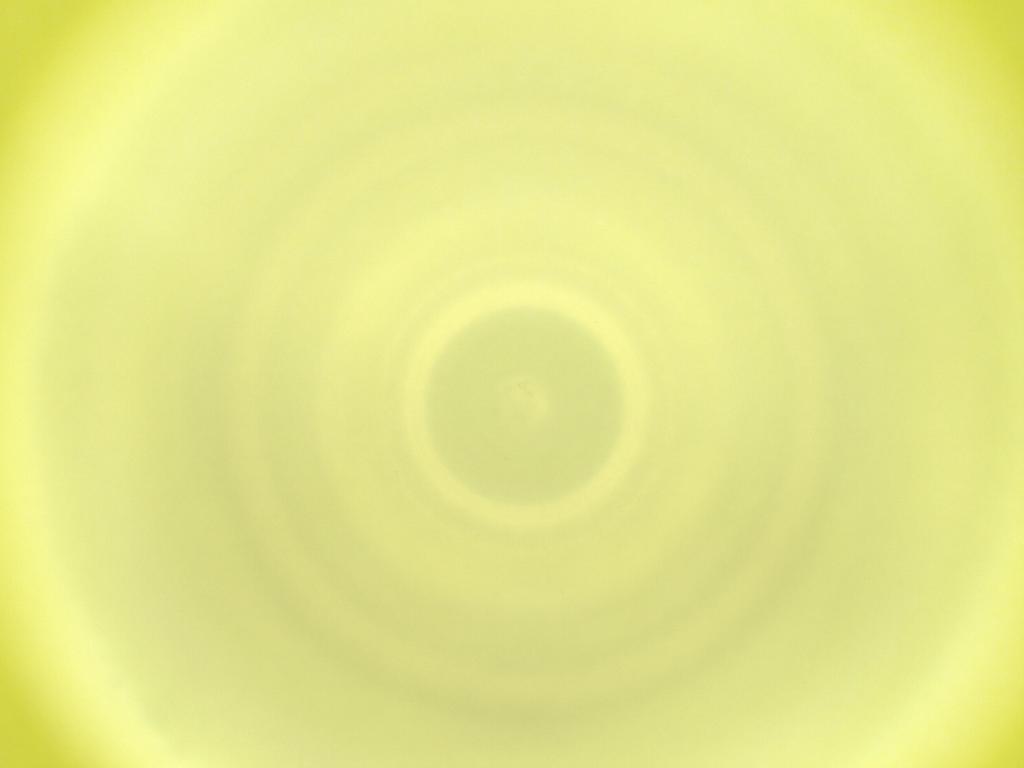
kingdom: Animalia
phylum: Arthropoda
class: Insecta
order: Diptera
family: Cecidomyiidae
